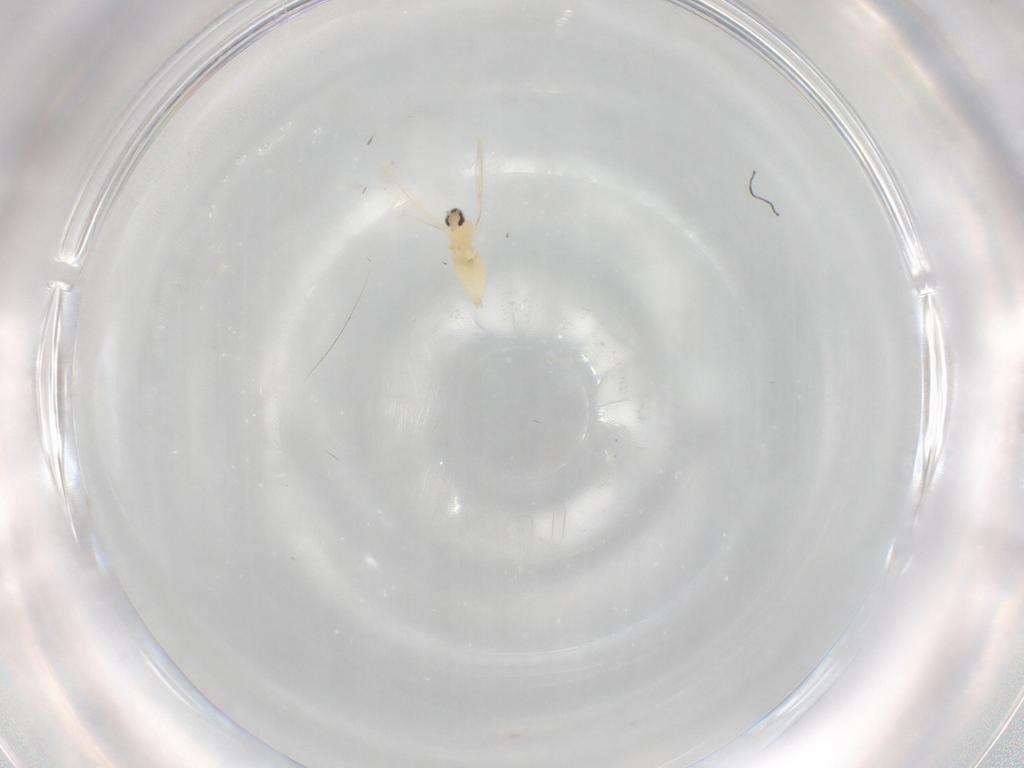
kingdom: Animalia
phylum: Arthropoda
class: Insecta
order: Diptera
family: Cecidomyiidae
